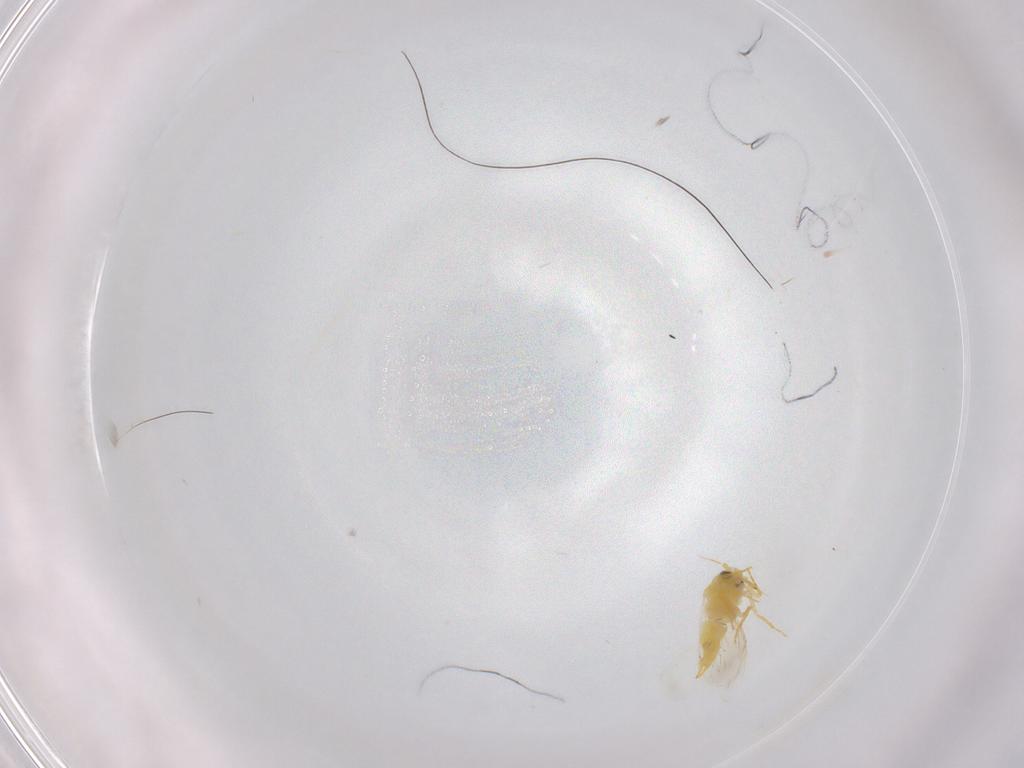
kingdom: Animalia
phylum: Arthropoda
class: Insecta
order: Hemiptera
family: Aleyrodidae
